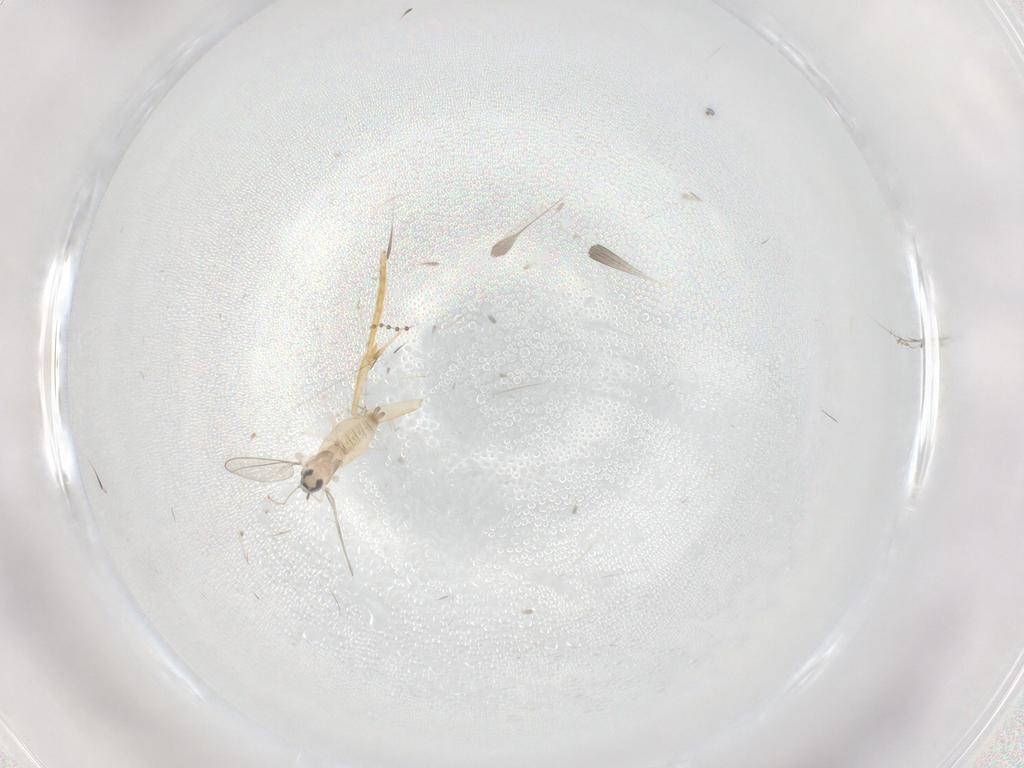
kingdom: Animalia
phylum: Arthropoda
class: Insecta
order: Diptera
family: Cecidomyiidae
